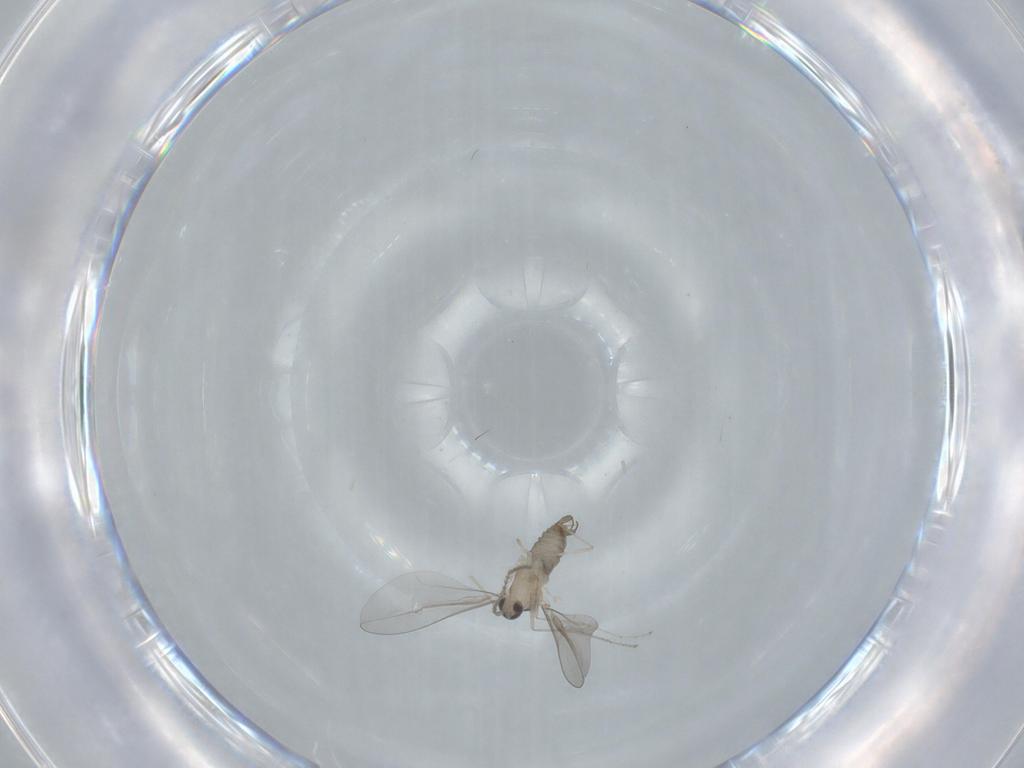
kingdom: Animalia
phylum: Arthropoda
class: Insecta
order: Diptera
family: Cecidomyiidae
